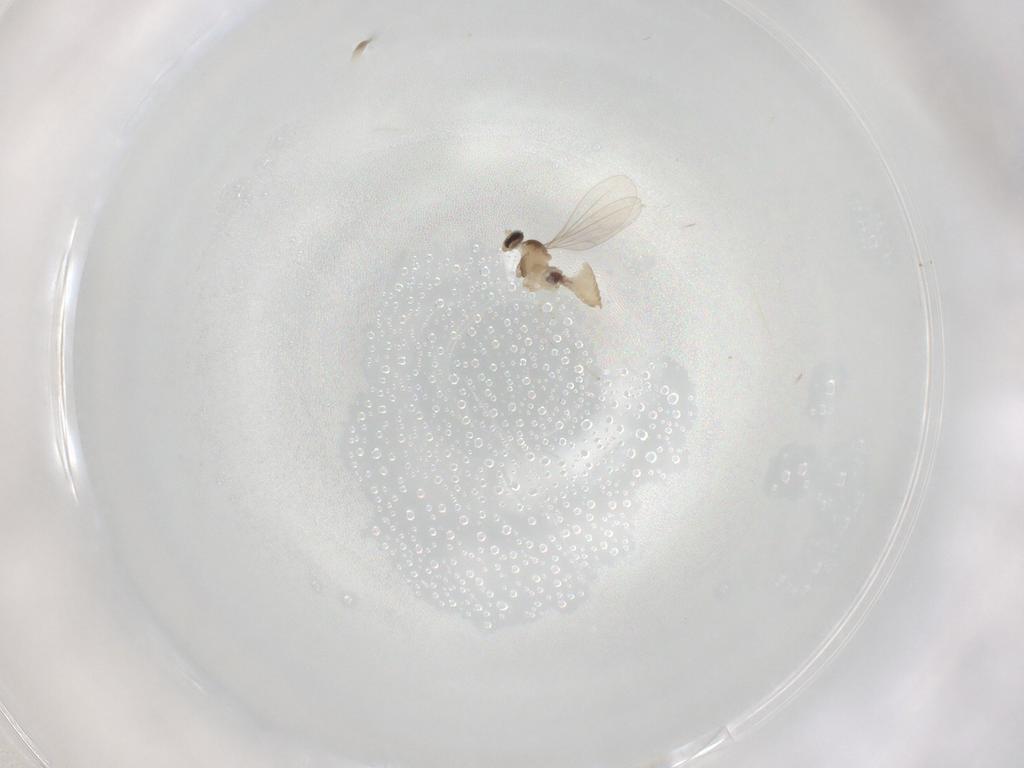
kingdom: Animalia
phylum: Arthropoda
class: Insecta
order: Diptera
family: Cecidomyiidae
